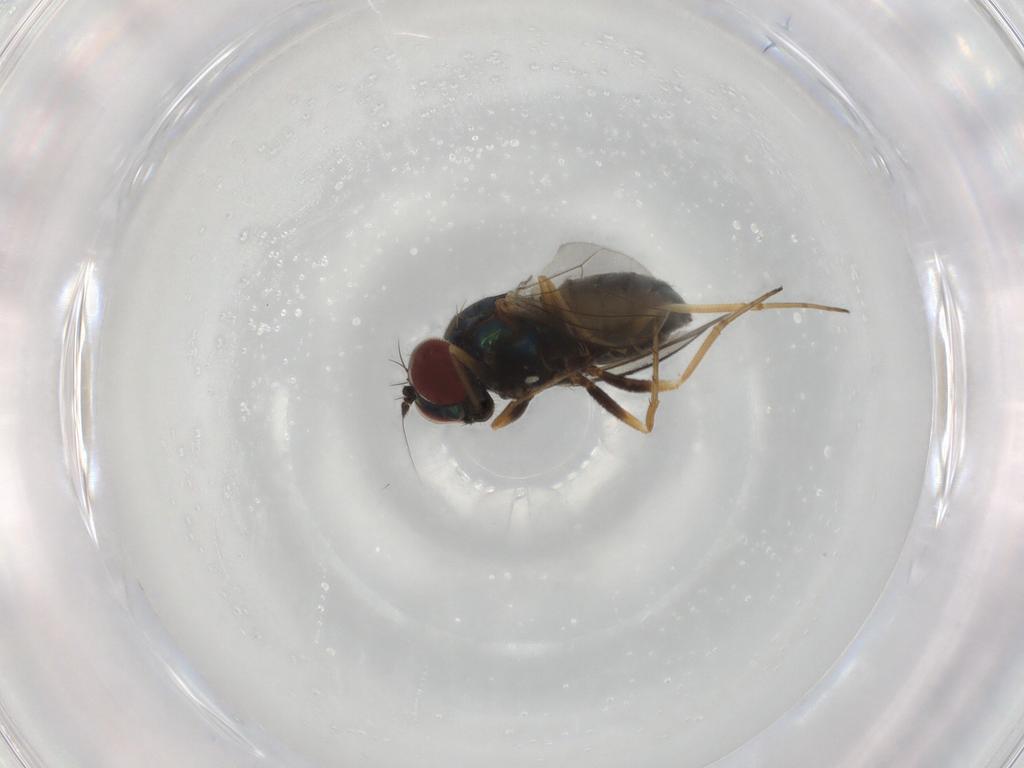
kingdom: Animalia
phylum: Arthropoda
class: Insecta
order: Diptera
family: Dolichopodidae
